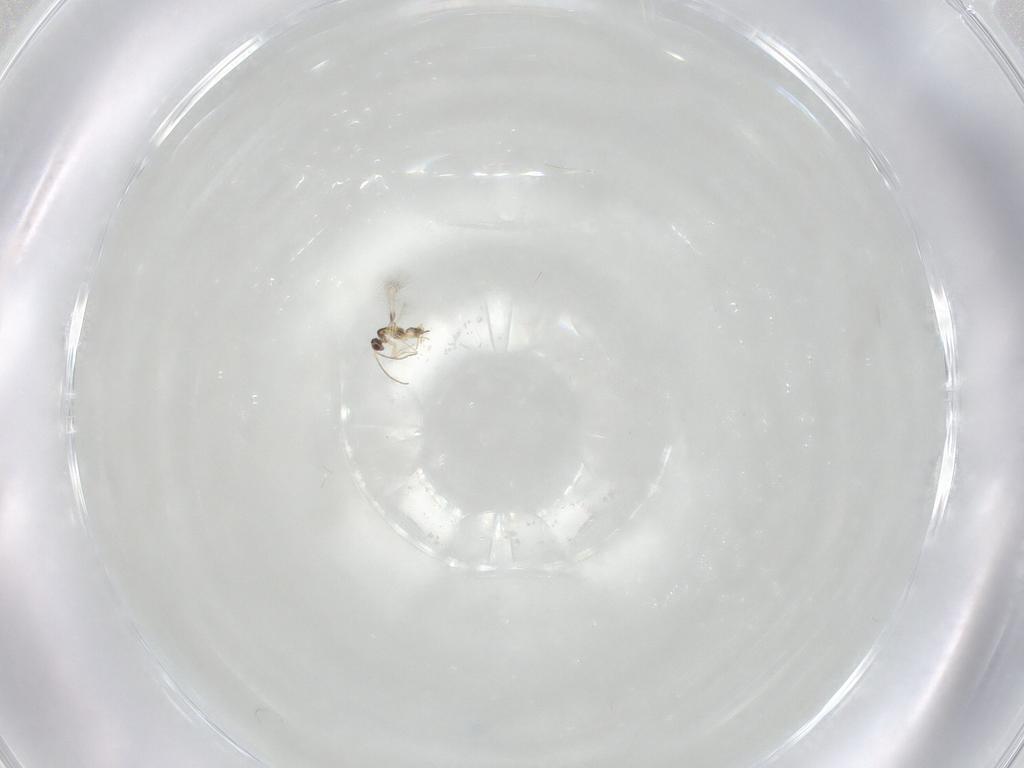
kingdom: Animalia
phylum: Arthropoda
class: Insecta
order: Hymenoptera
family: Mymaridae
